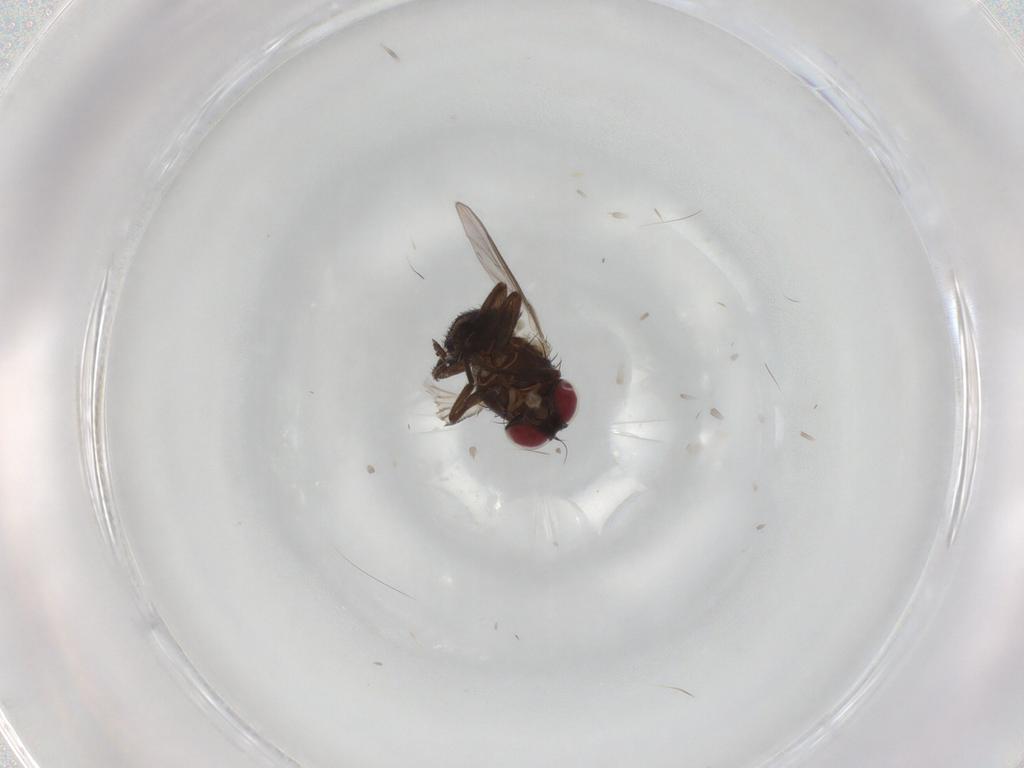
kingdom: Animalia
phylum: Arthropoda
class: Insecta
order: Diptera
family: Agromyzidae
